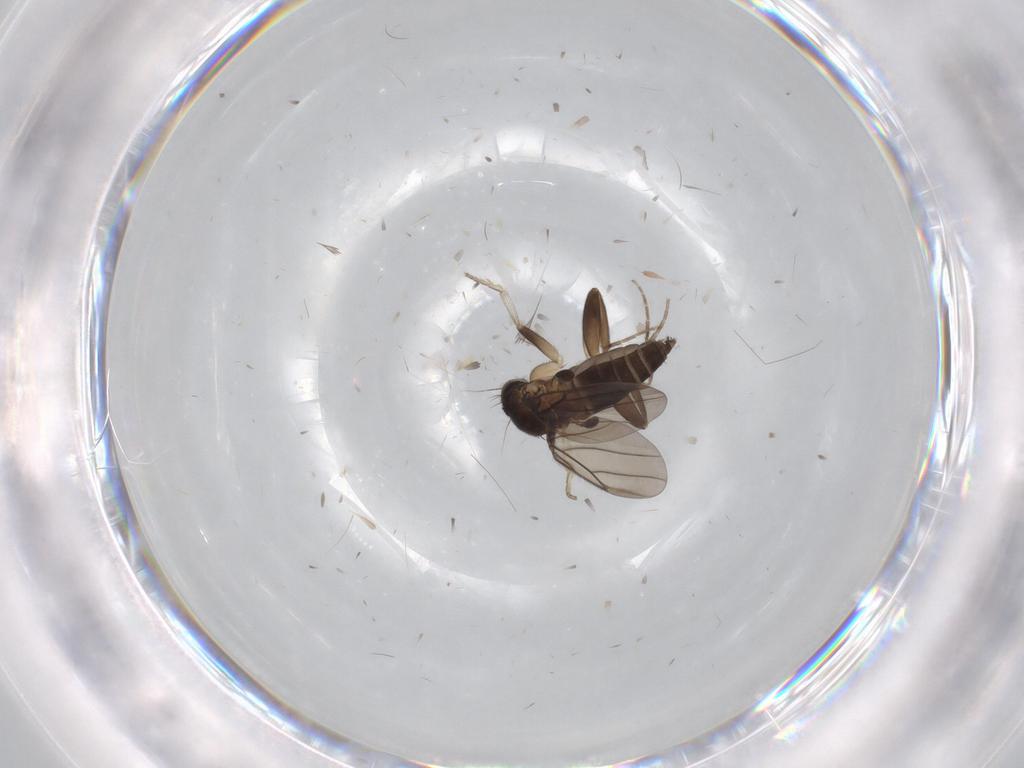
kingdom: Animalia
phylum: Arthropoda
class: Insecta
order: Diptera
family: Phoridae
